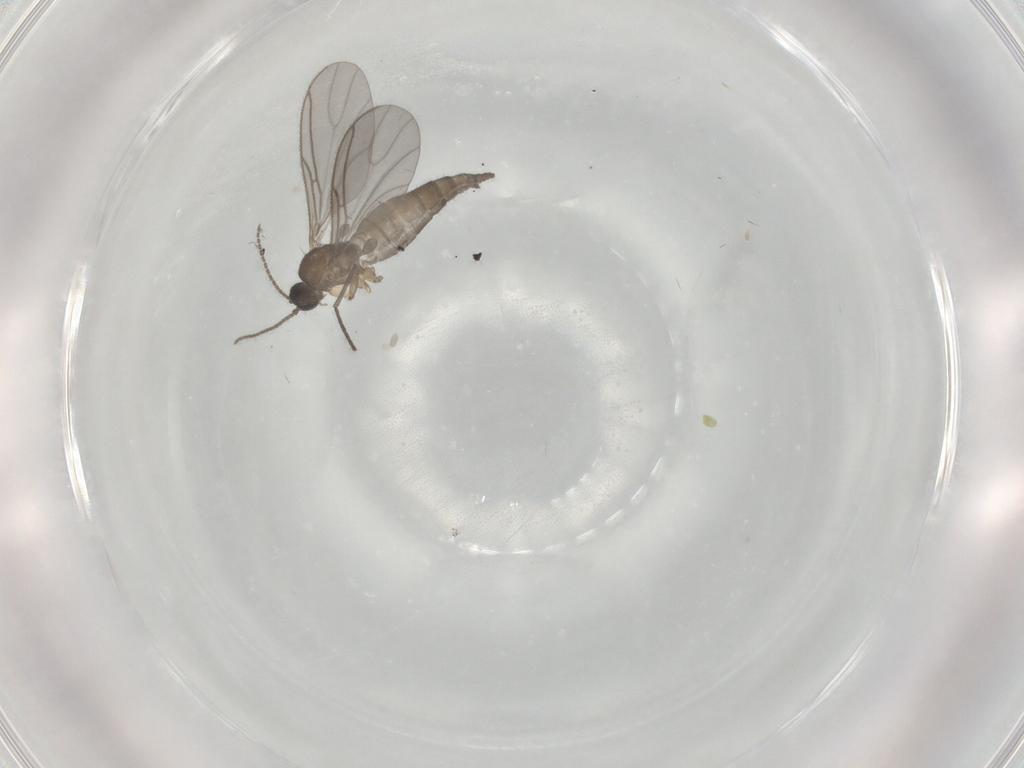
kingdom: Animalia
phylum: Arthropoda
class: Insecta
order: Diptera
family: Sciaridae
